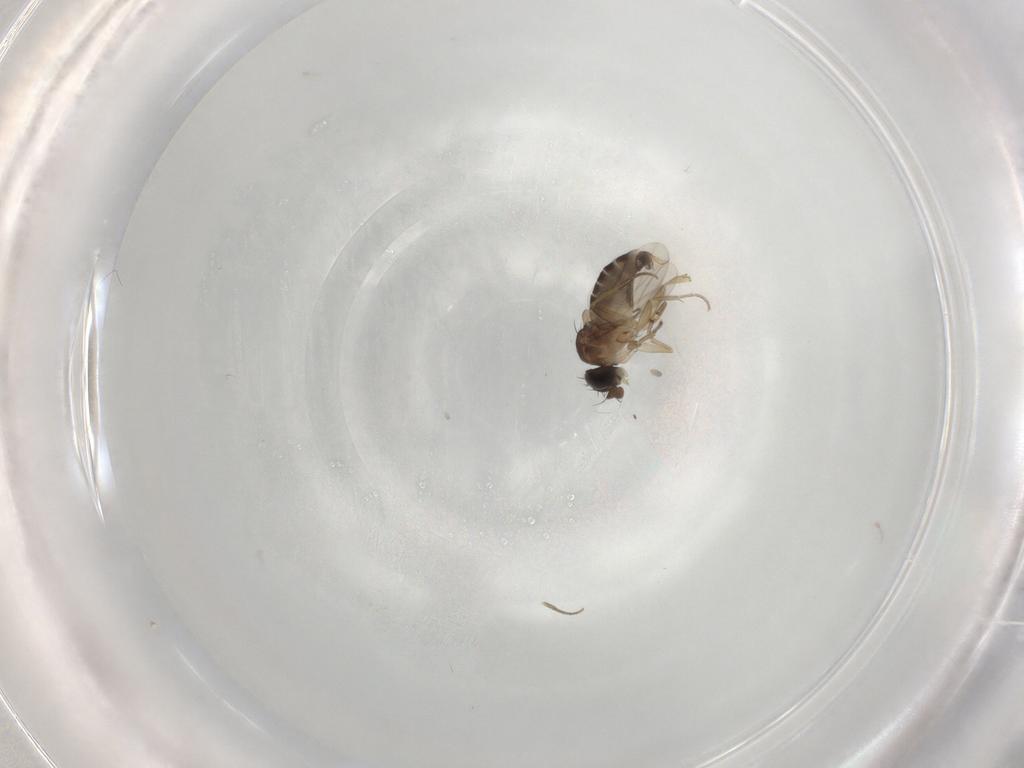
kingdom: Animalia
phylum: Arthropoda
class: Insecta
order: Diptera
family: Phoridae
